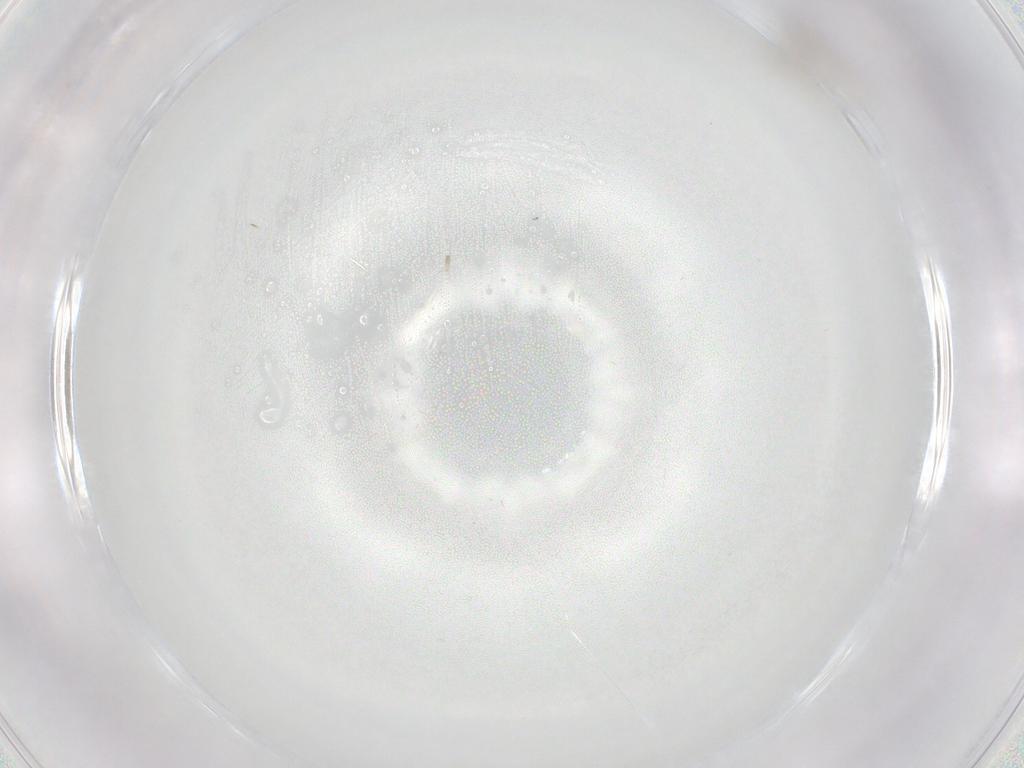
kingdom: Animalia
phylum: Arthropoda
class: Insecta
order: Diptera
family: Cecidomyiidae
